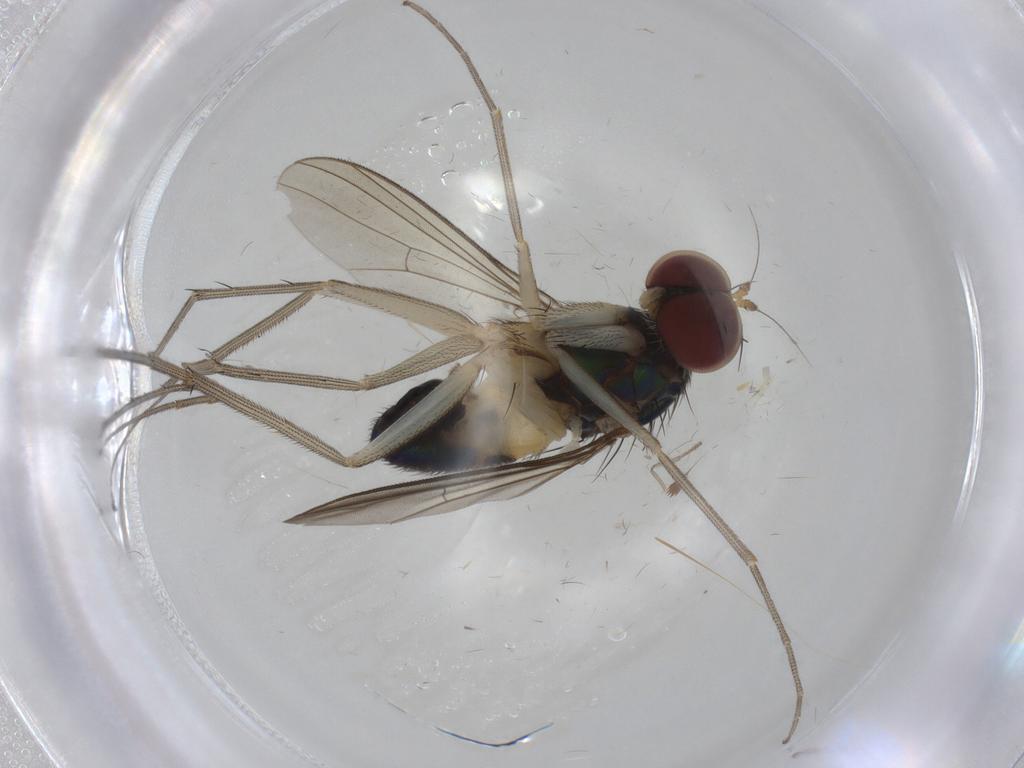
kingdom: Animalia
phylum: Arthropoda
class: Insecta
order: Diptera
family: Dolichopodidae
